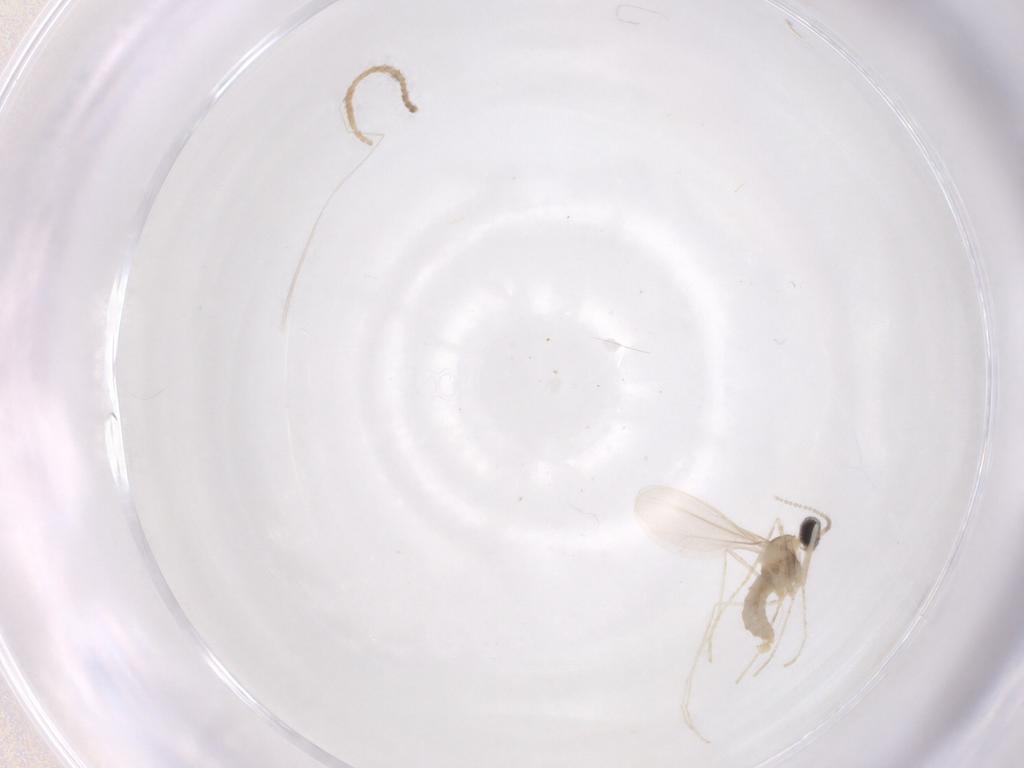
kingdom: Animalia
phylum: Arthropoda
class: Insecta
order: Diptera
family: Cecidomyiidae
